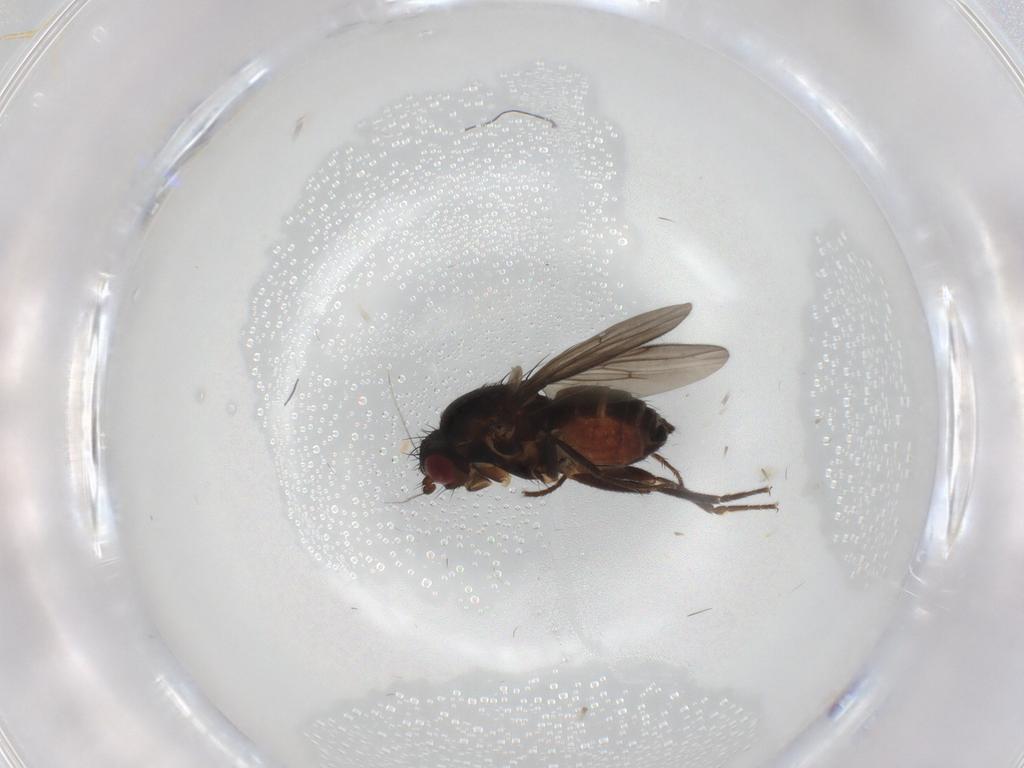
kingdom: Animalia
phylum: Arthropoda
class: Insecta
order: Diptera
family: Sphaeroceridae
